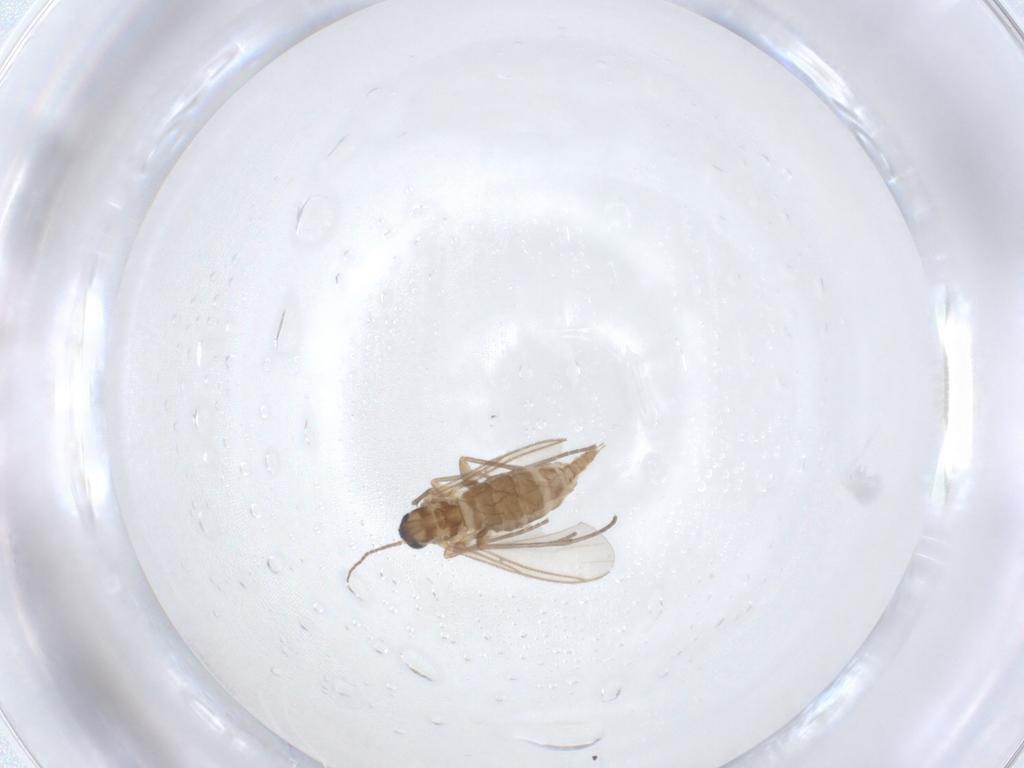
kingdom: Animalia
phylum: Arthropoda
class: Insecta
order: Diptera
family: Sciaridae
